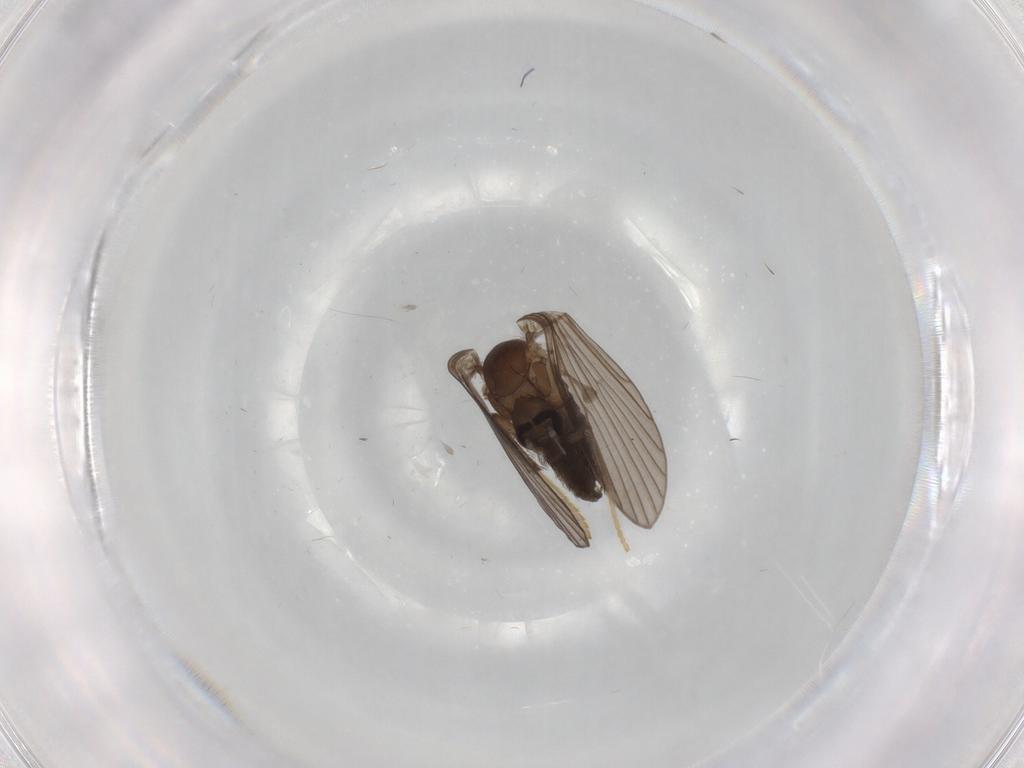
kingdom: Animalia
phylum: Arthropoda
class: Insecta
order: Diptera
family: Psychodidae
